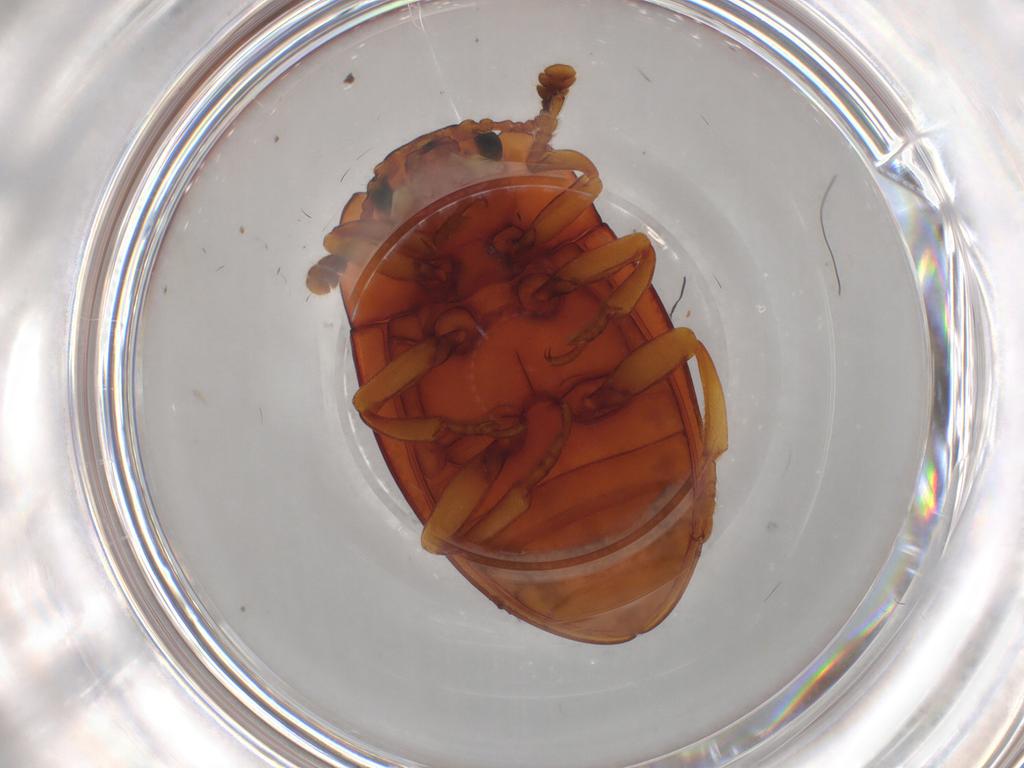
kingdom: Animalia
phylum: Arthropoda
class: Insecta
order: Coleoptera
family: Erotylidae
